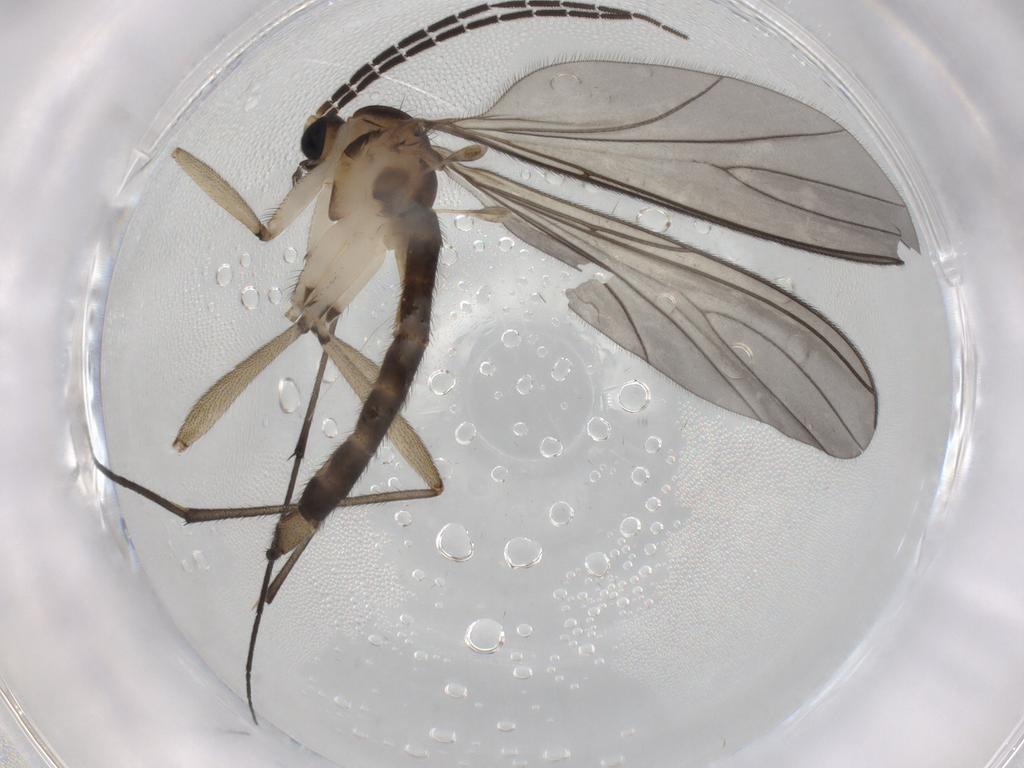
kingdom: Animalia
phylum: Arthropoda
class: Insecta
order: Diptera
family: Sciaridae
